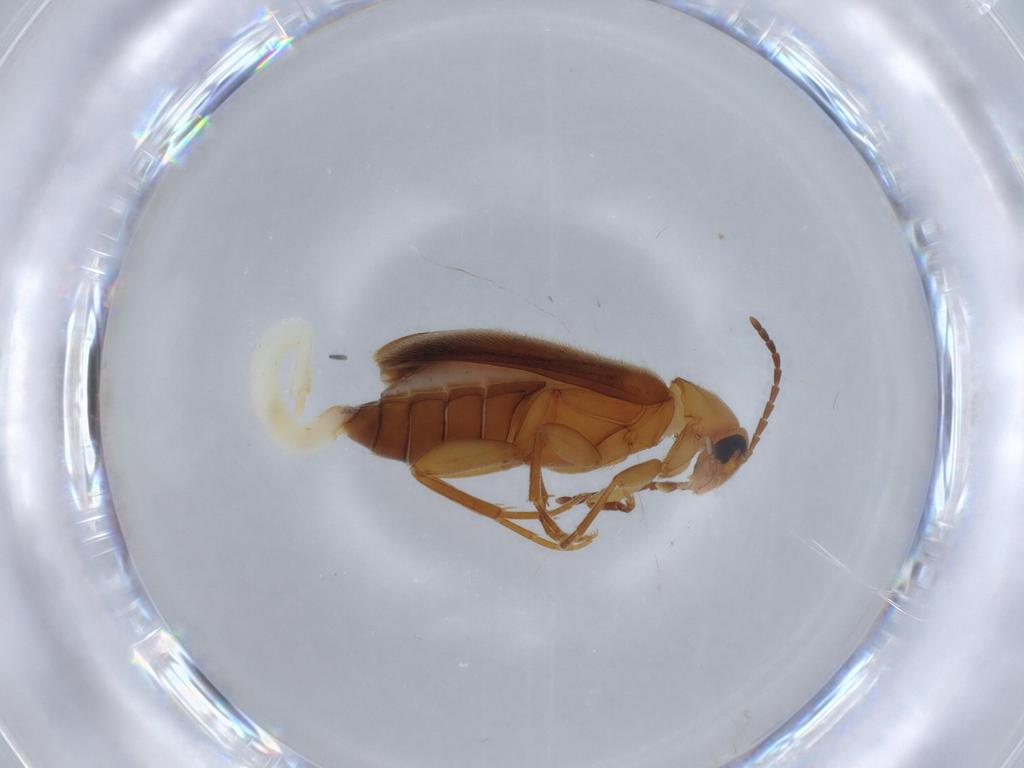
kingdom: Animalia
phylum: Arthropoda
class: Insecta
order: Coleoptera
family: Scraptiidae
